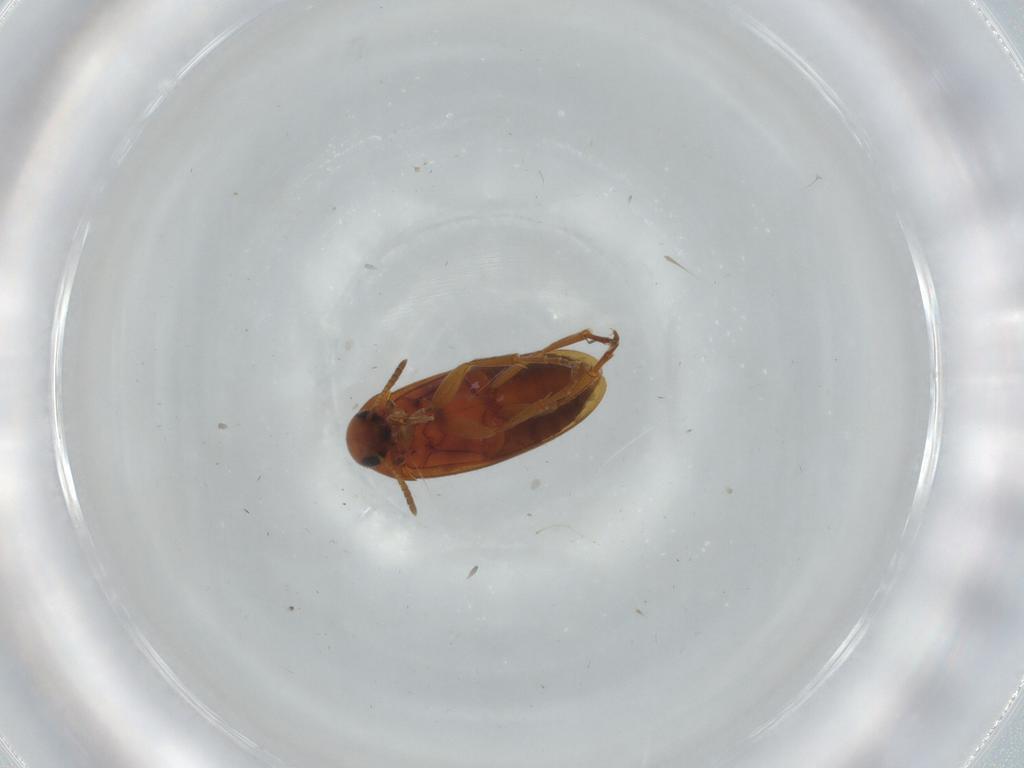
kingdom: Animalia
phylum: Arthropoda
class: Insecta
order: Coleoptera
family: Scraptiidae
